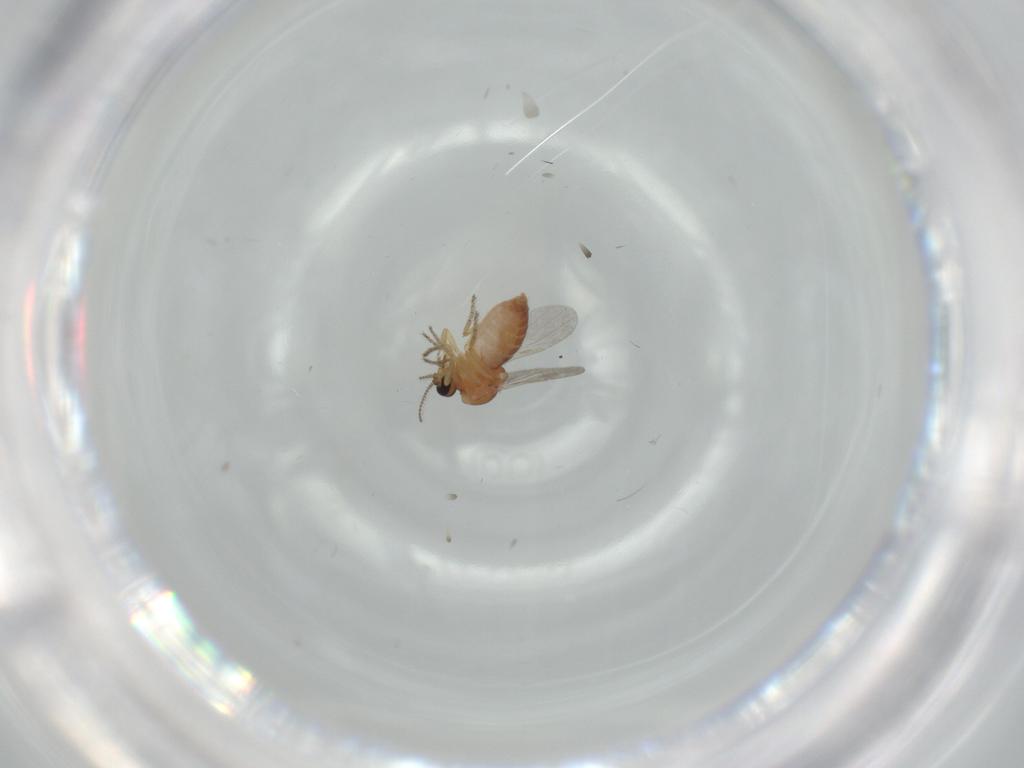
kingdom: Animalia
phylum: Arthropoda
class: Insecta
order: Diptera
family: Ceratopogonidae
